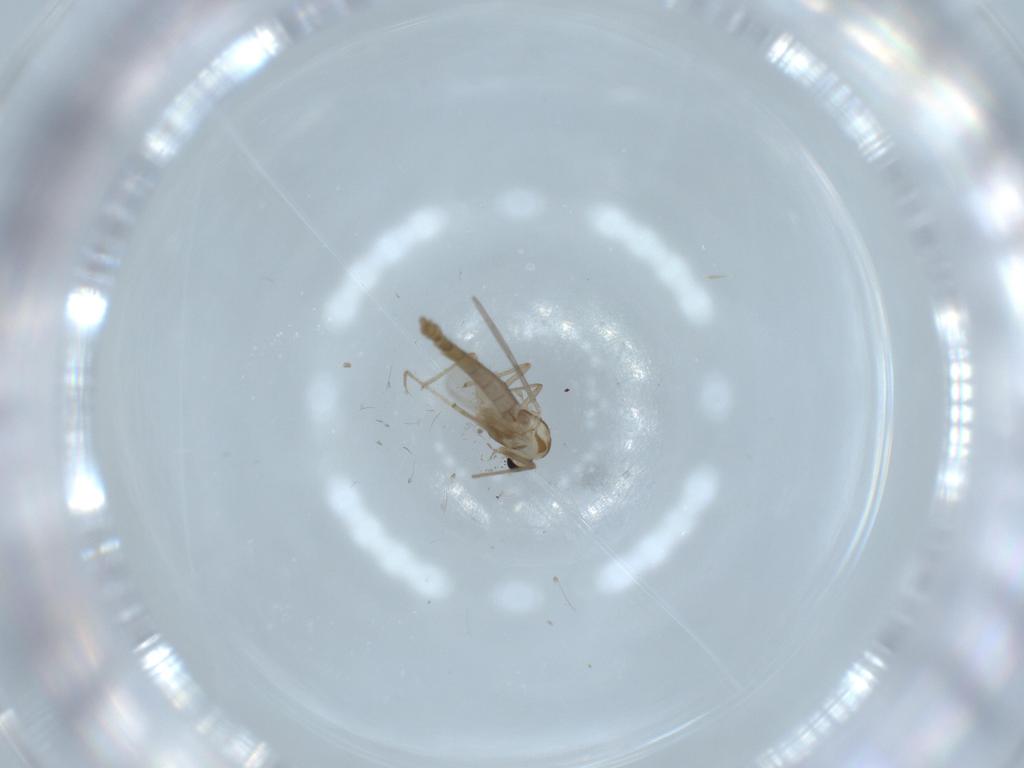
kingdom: Animalia
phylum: Arthropoda
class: Insecta
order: Diptera
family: Chironomidae
